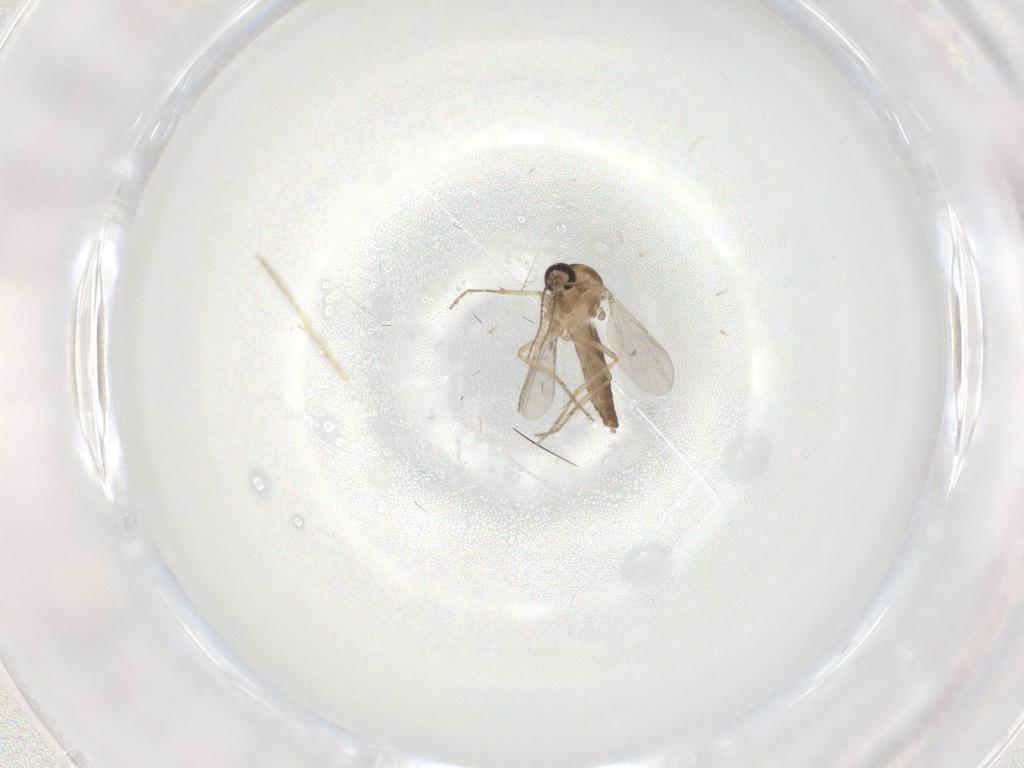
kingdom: Animalia
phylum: Arthropoda
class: Insecta
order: Diptera
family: Ceratopogonidae
